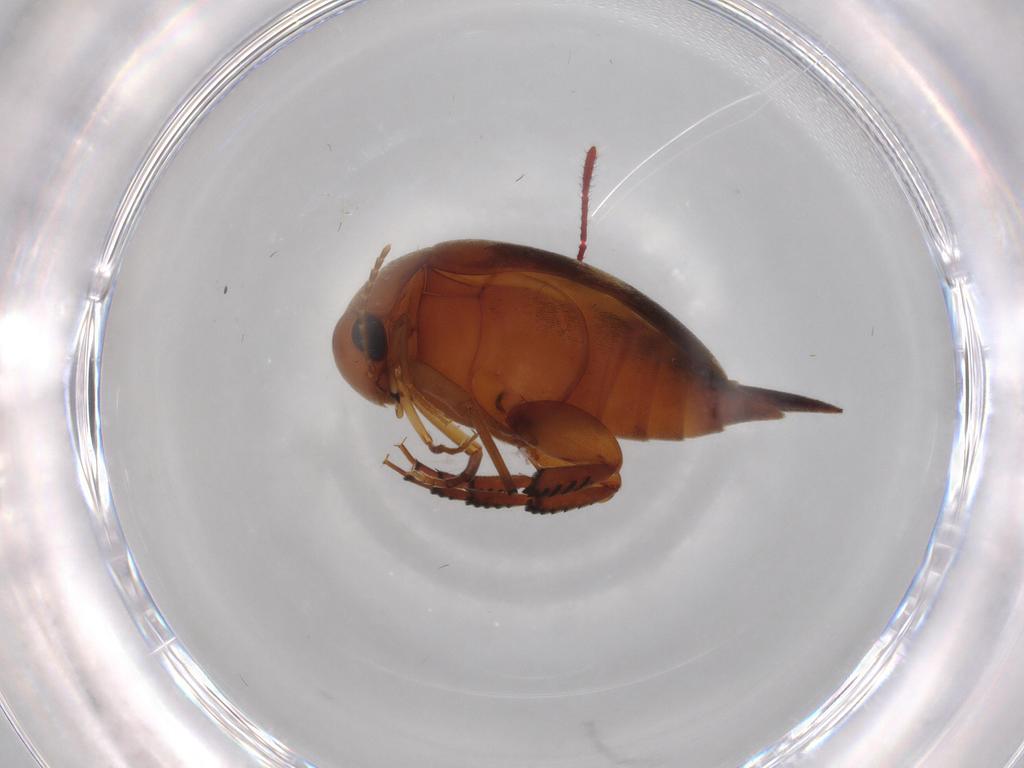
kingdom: Animalia
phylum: Arthropoda
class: Insecta
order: Coleoptera
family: Mordellidae
